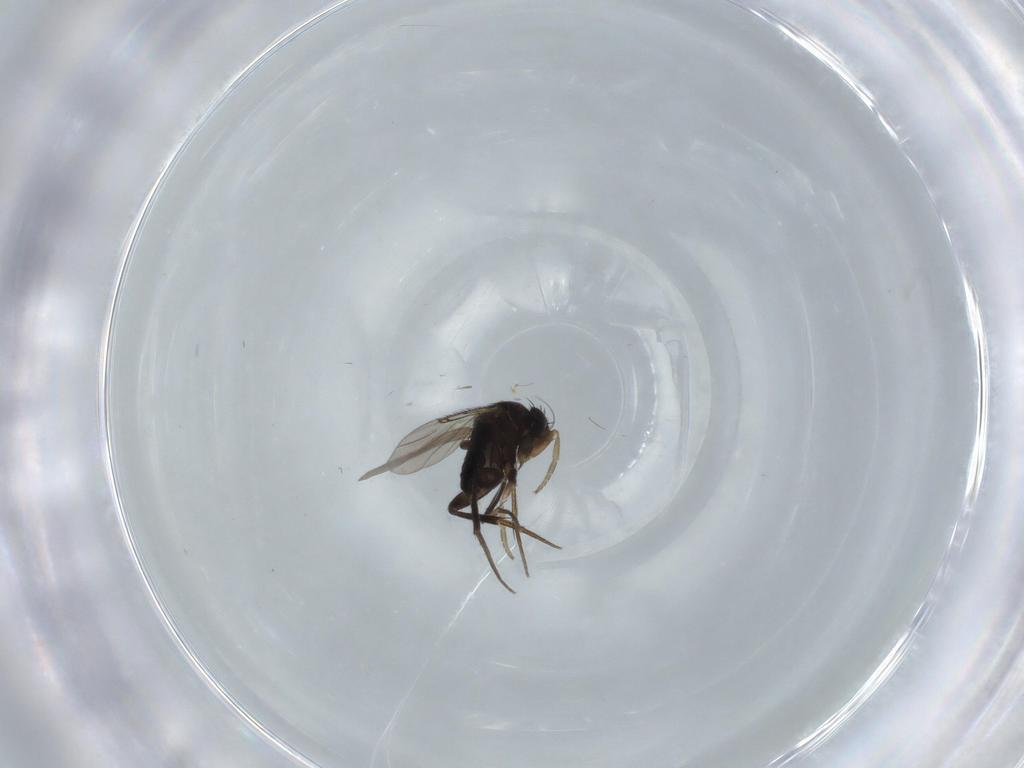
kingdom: Animalia
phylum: Arthropoda
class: Insecta
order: Diptera
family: Phoridae
